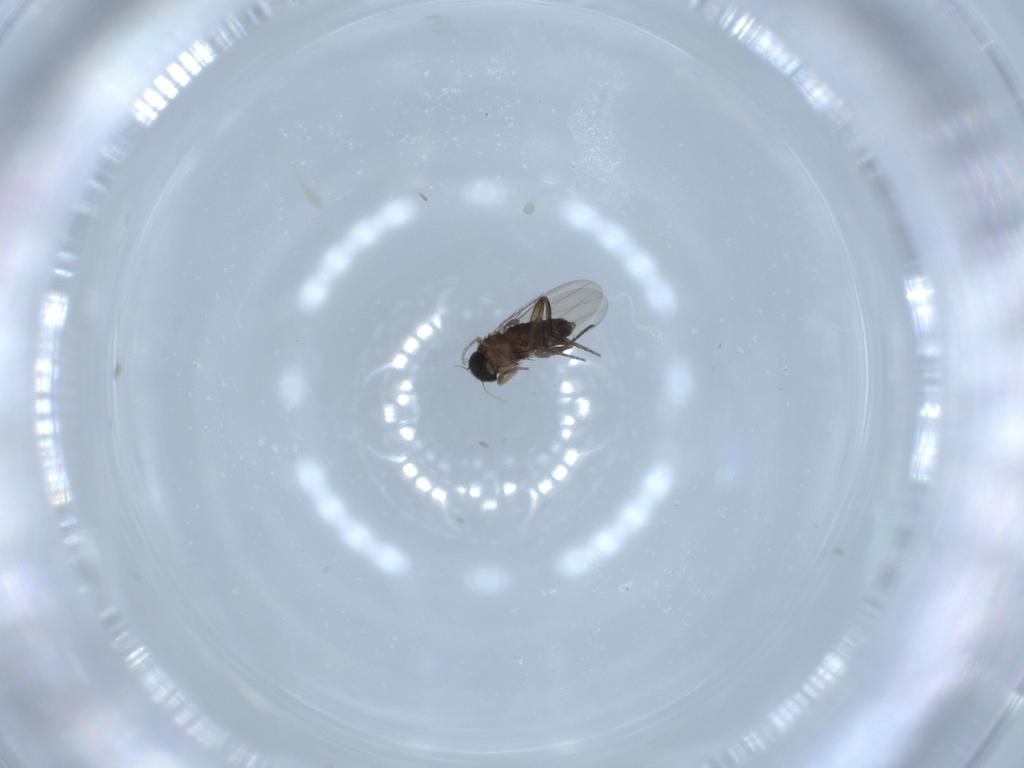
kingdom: Animalia
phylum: Arthropoda
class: Insecta
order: Diptera
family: Phoridae
